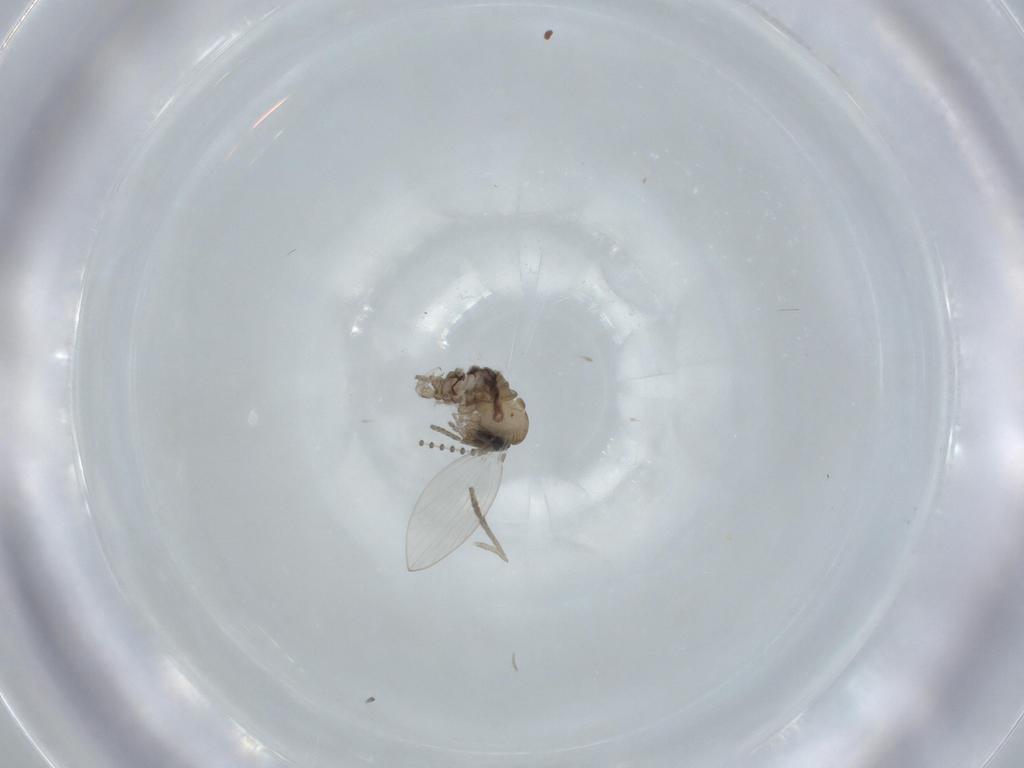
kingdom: Animalia
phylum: Arthropoda
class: Insecta
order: Diptera
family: Psychodidae
